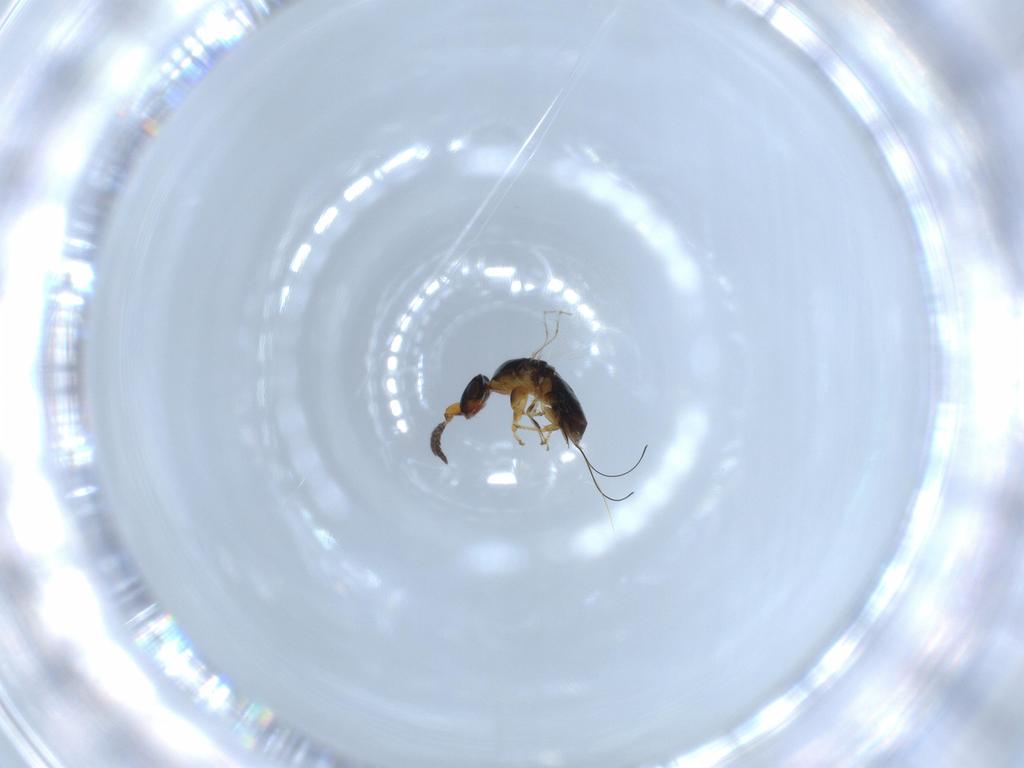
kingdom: Animalia
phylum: Arthropoda
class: Insecta
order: Hymenoptera
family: Agaonidae
